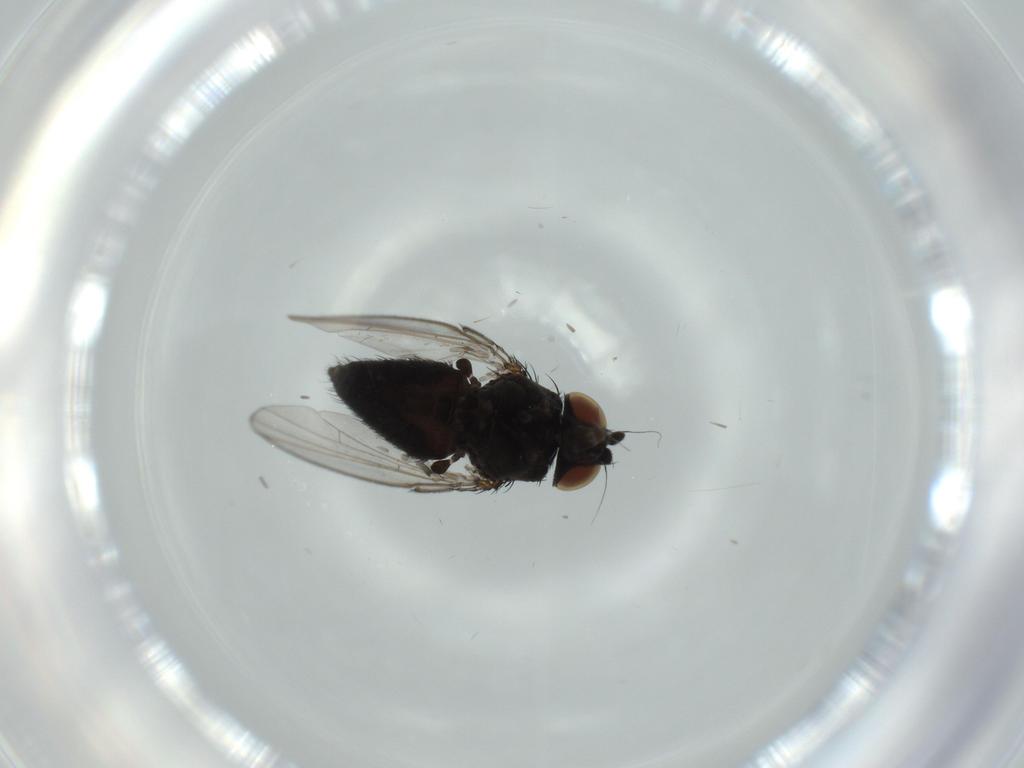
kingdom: Animalia
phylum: Arthropoda
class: Insecta
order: Diptera
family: Cecidomyiidae
